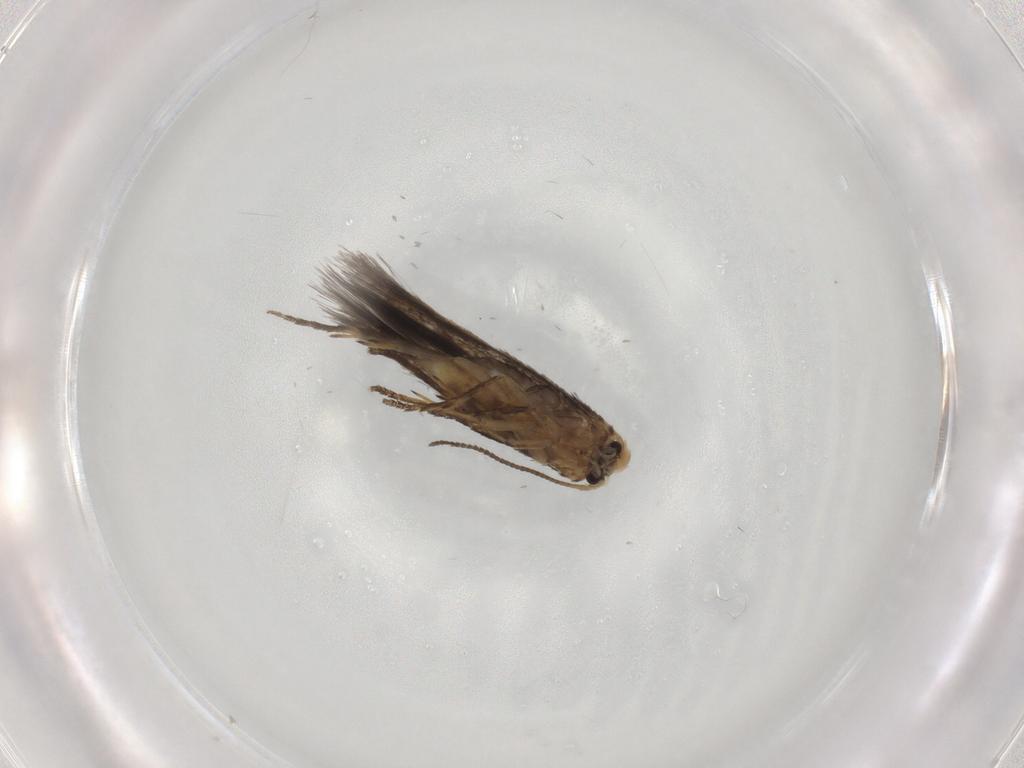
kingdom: Animalia
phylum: Arthropoda
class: Insecta
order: Lepidoptera
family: Nepticulidae
